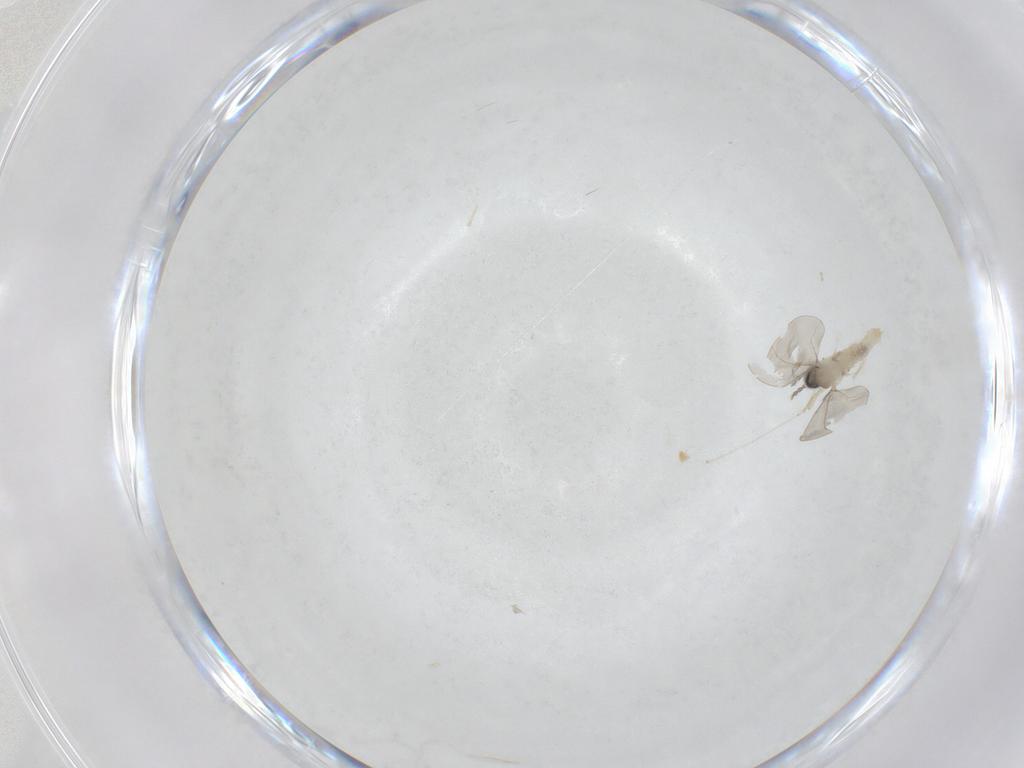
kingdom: Animalia
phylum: Arthropoda
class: Insecta
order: Diptera
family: Cecidomyiidae
